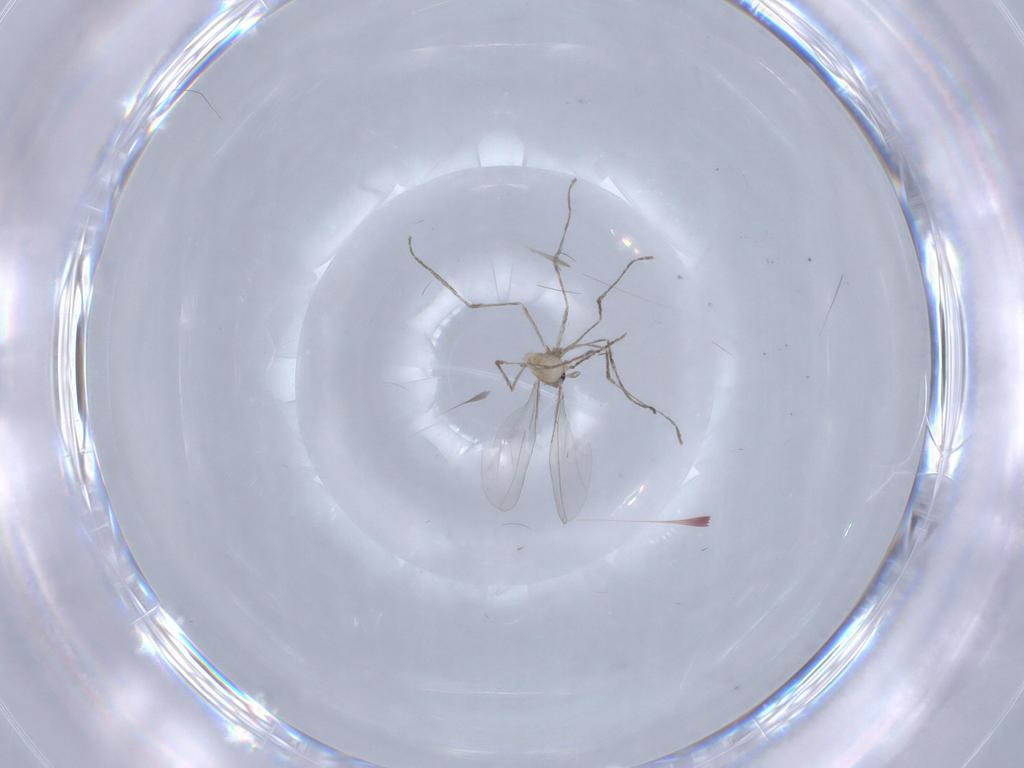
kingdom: Animalia
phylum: Arthropoda
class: Insecta
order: Diptera
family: Cecidomyiidae
